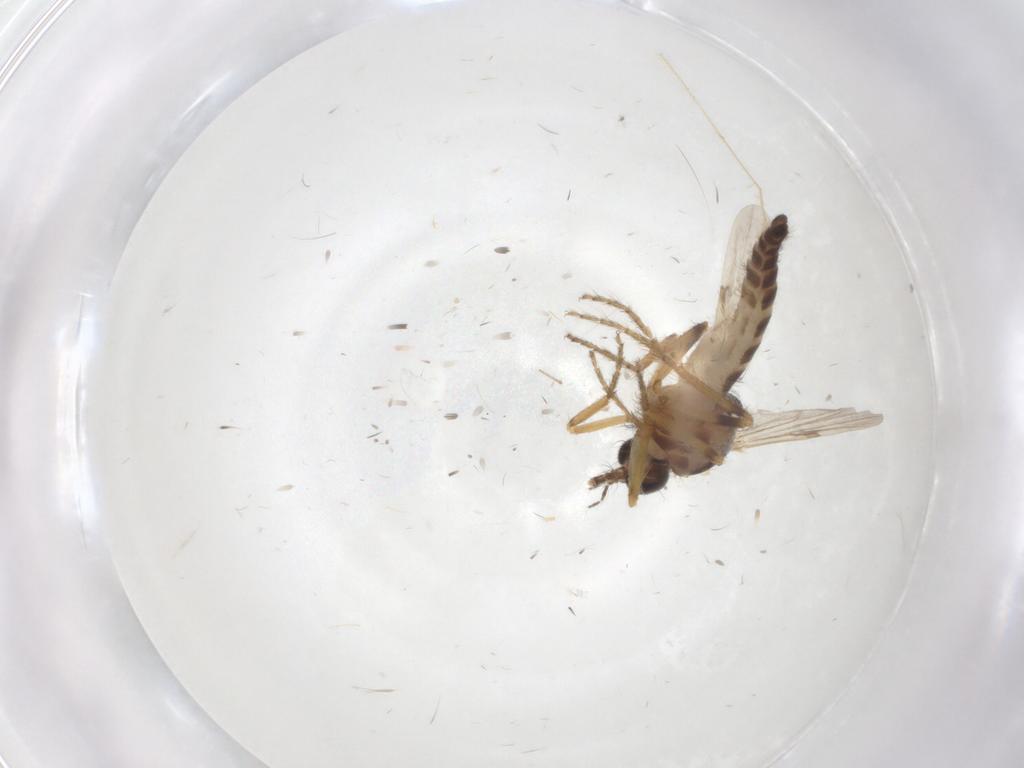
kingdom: Animalia
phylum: Arthropoda
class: Insecta
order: Diptera
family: Ceratopogonidae
